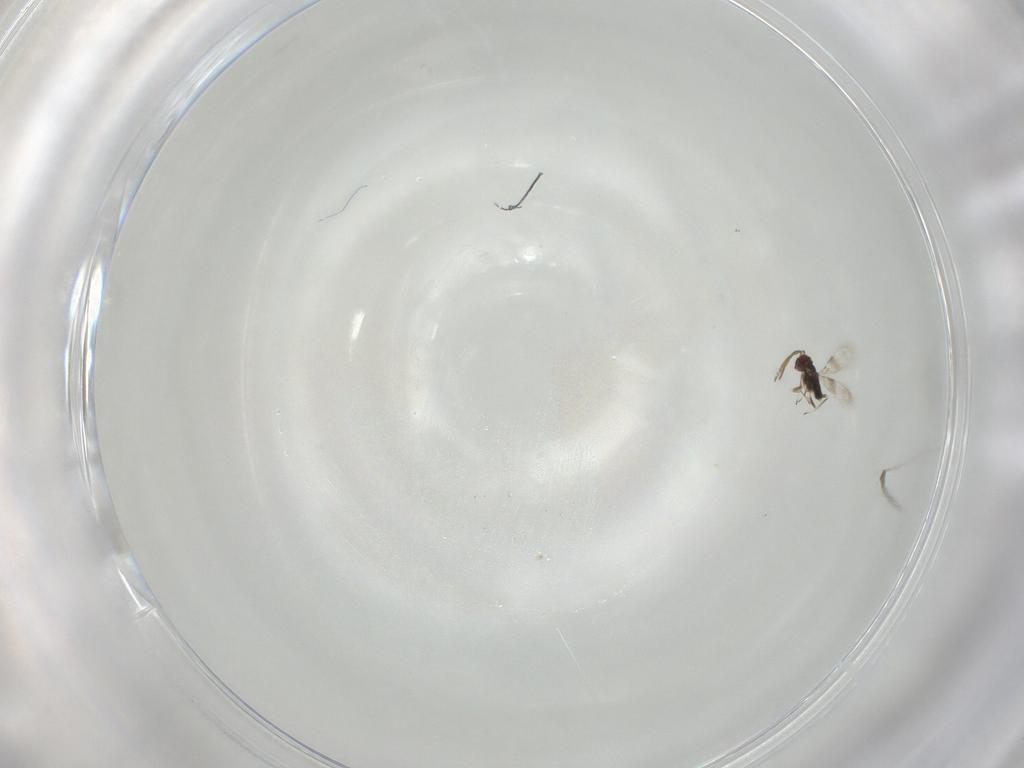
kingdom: Animalia
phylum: Arthropoda
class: Insecta
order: Hymenoptera
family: Azotidae
